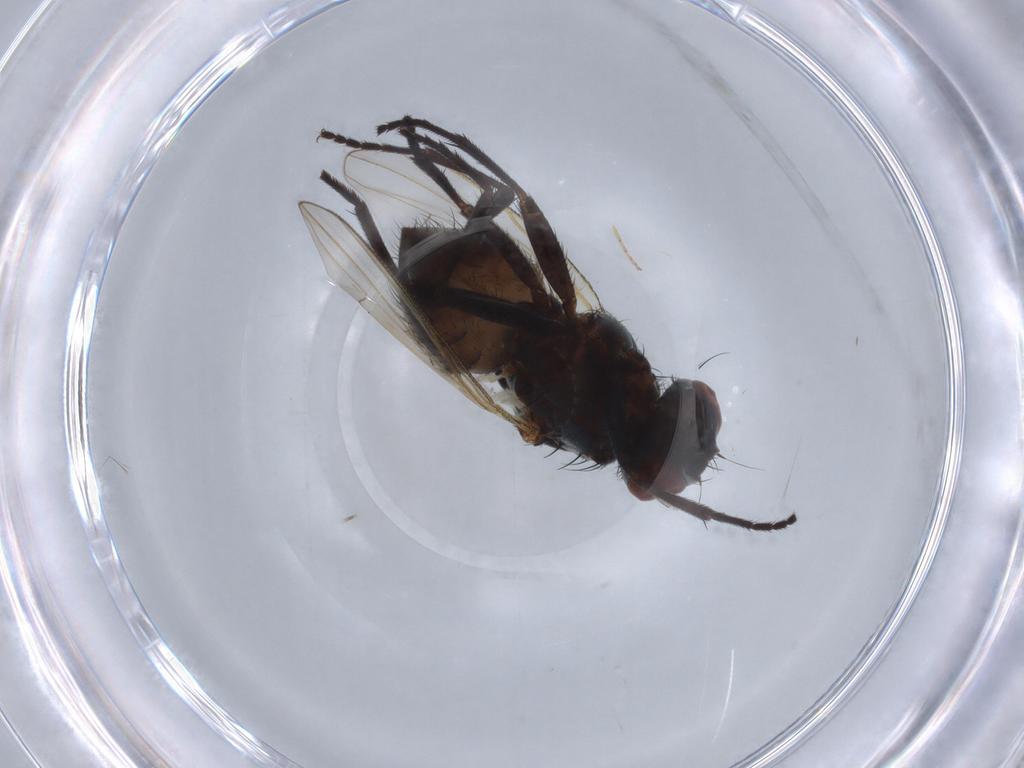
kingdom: Animalia
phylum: Arthropoda
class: Insecta
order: Diptera
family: Muscidae
